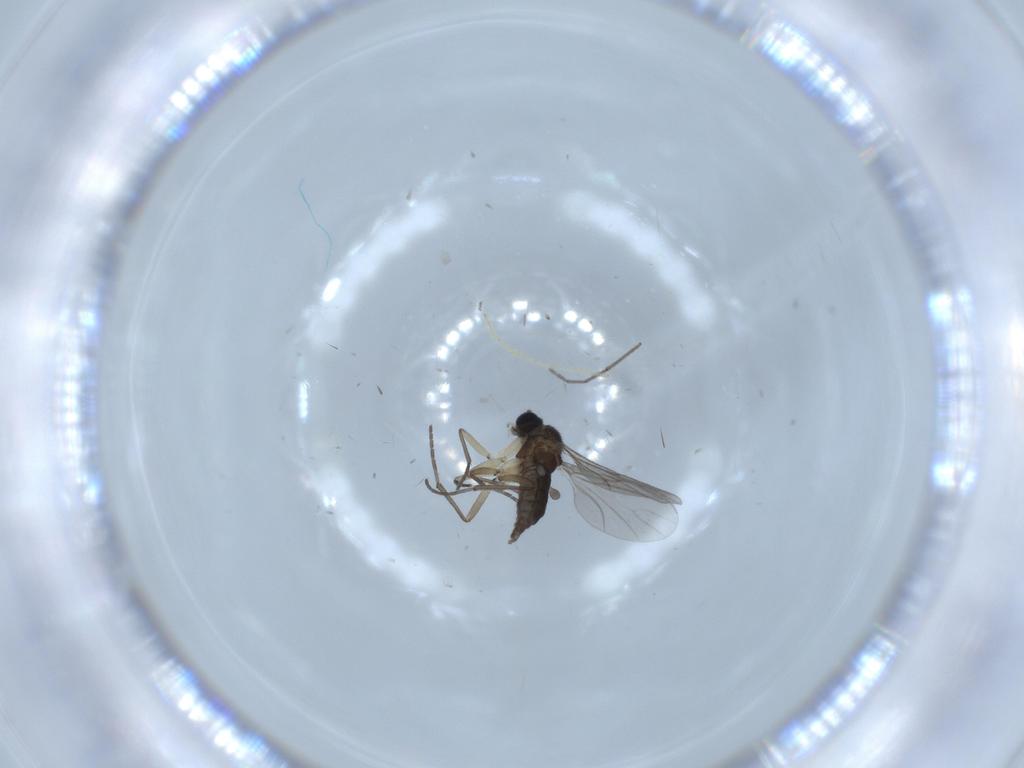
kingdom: Animalia
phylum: Arthropoda
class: Insecta
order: Diptera
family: Sciaridae
